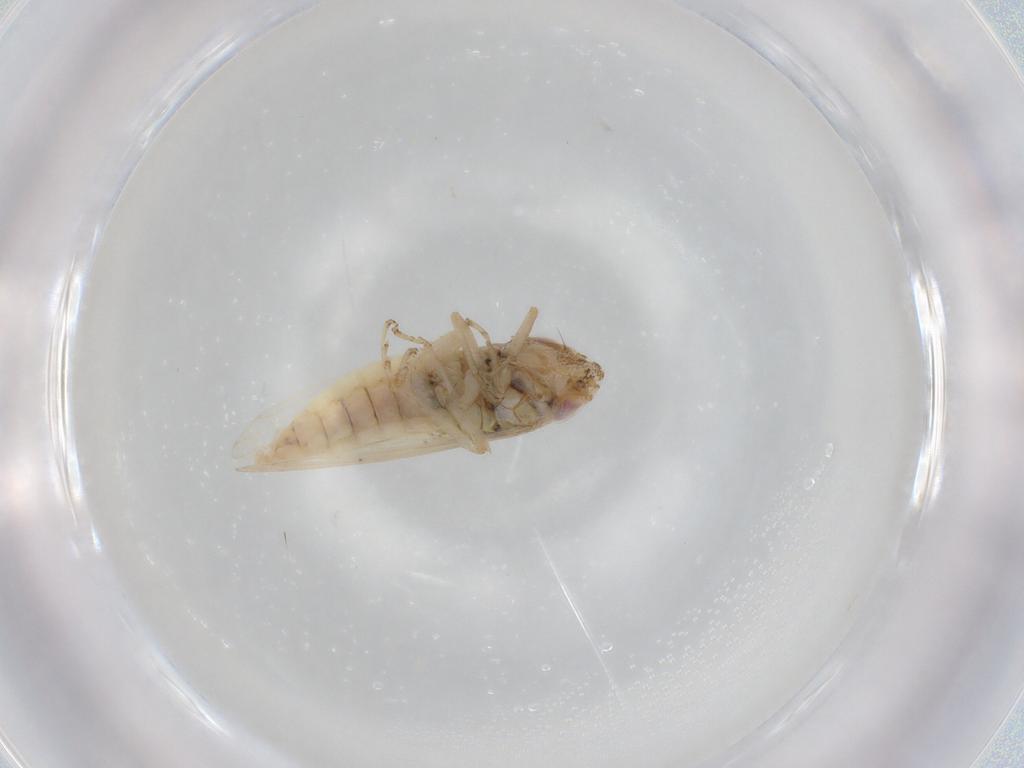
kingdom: Animalia
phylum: Arthropoda
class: Insecta
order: Hemiptera
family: Cicadellidae
